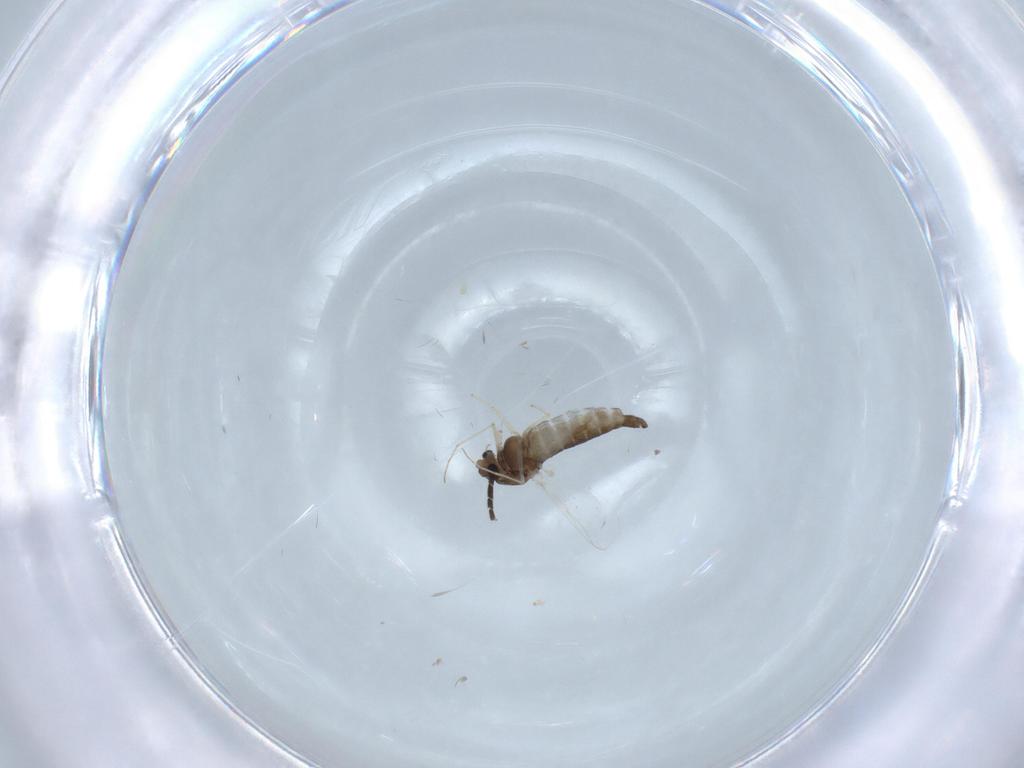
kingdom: Animalia
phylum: Arthropoda
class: Insecta
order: Diptera
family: Chironomidae
